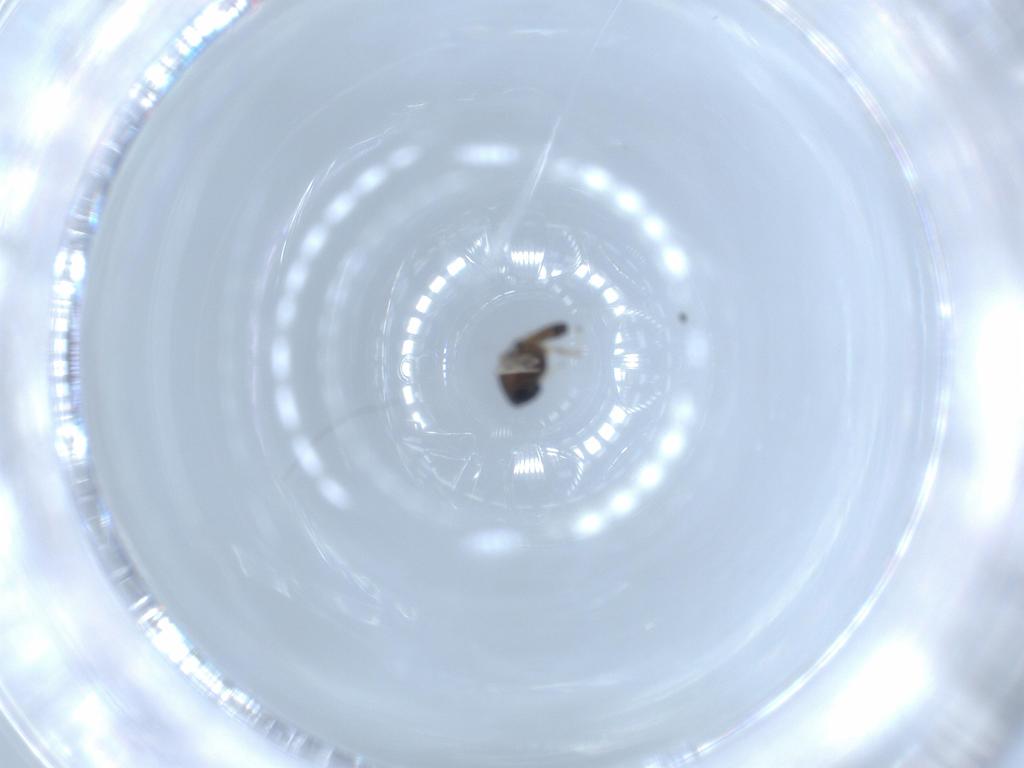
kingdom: Animalia
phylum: Arthropoda
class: Insecta
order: Diptera
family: Chironomidae
